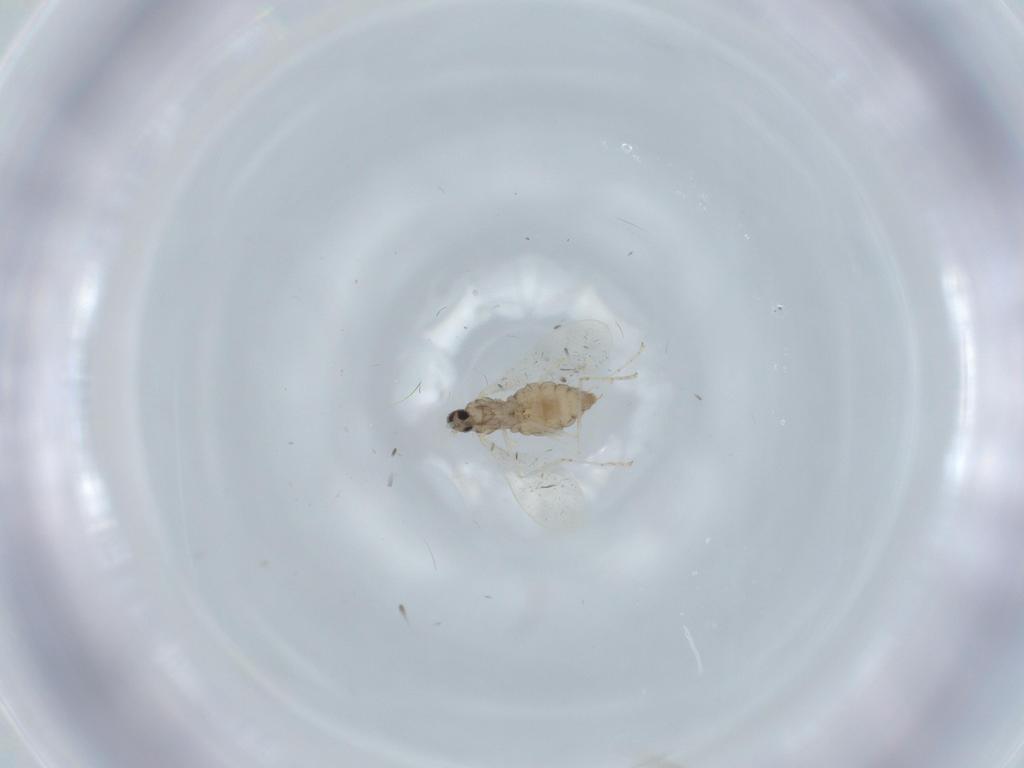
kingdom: Animalia
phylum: Arthropoda
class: Insecta
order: Diptera
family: Cecidomyiidae
